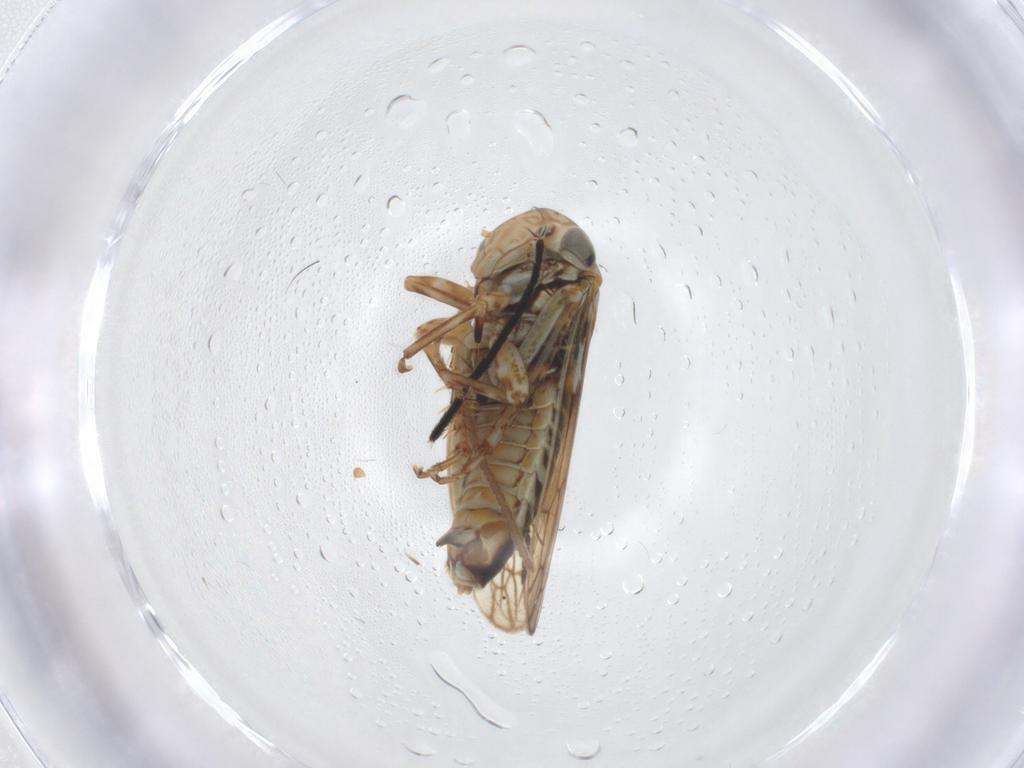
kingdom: Animalia
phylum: Arthropoda
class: Insecta
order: Hemiptera
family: Cicadellidae
